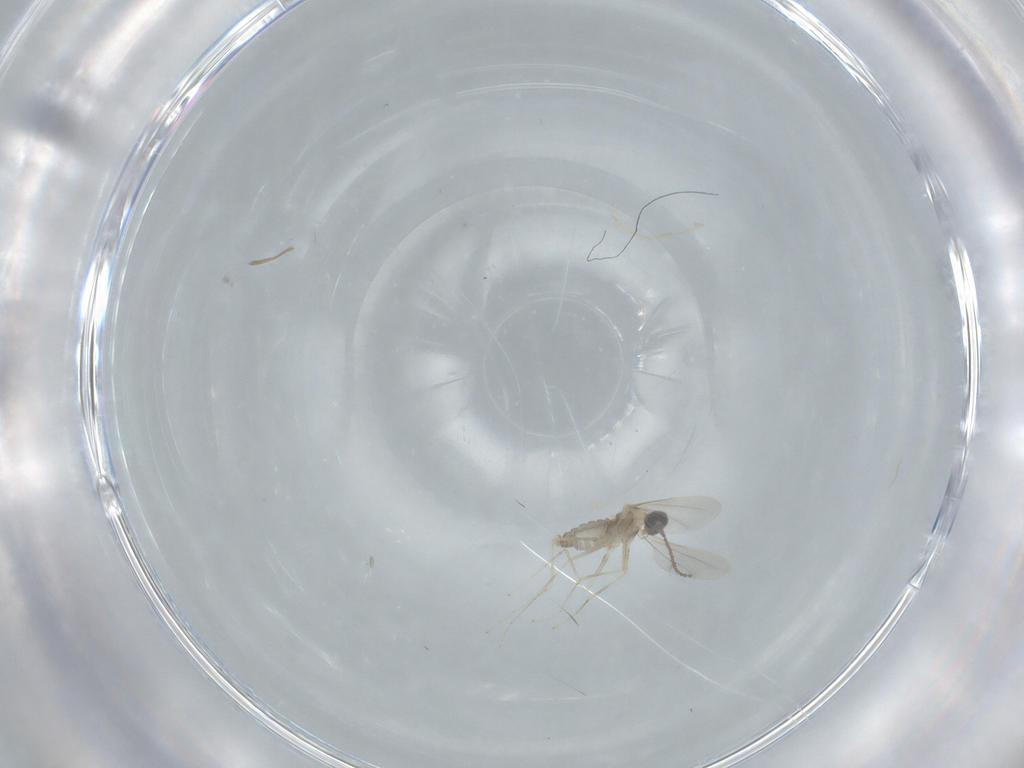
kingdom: Animalia
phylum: Arthropoda
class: Insecta
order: Diptera
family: Cecidomyiidae
